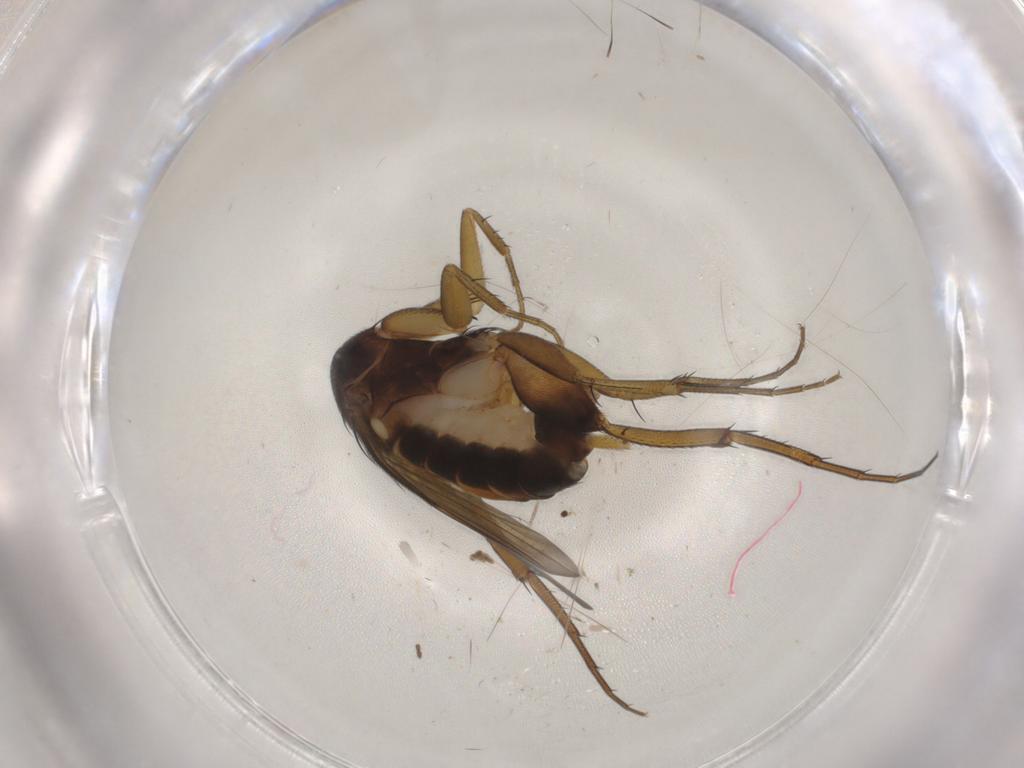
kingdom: Animalia
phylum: Arthropoda
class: Insecta
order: Diptera
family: Phoridae
